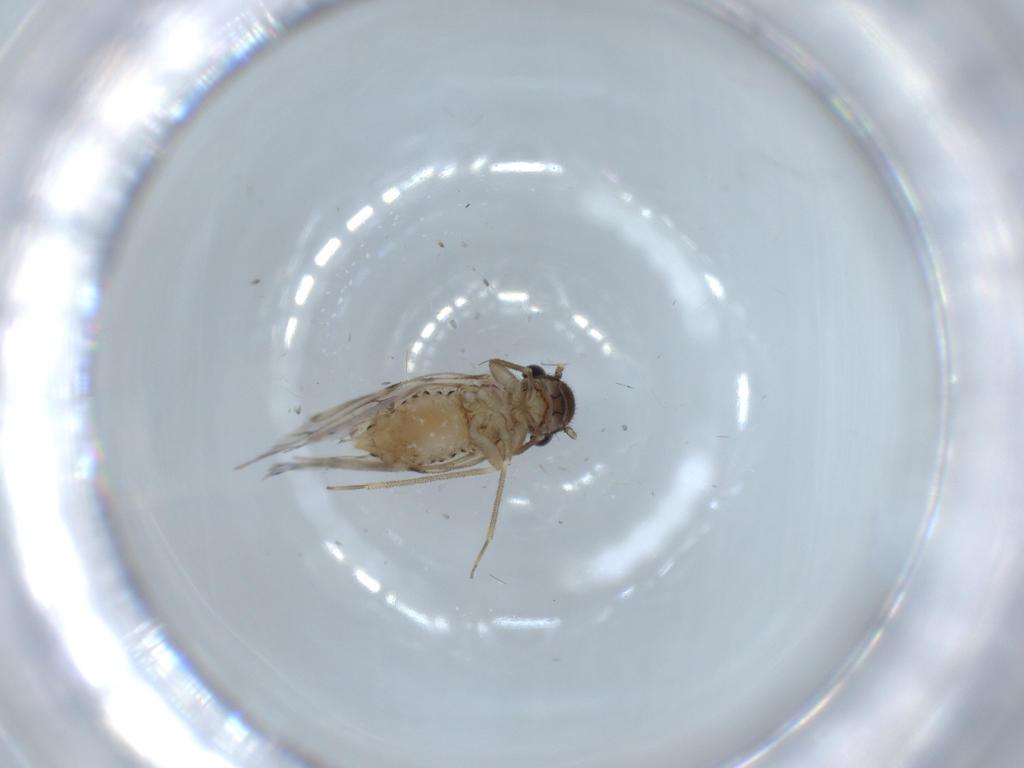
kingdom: Animalia
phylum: Arthropoda
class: Insecta
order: Psocodea
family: Epipsocidae
